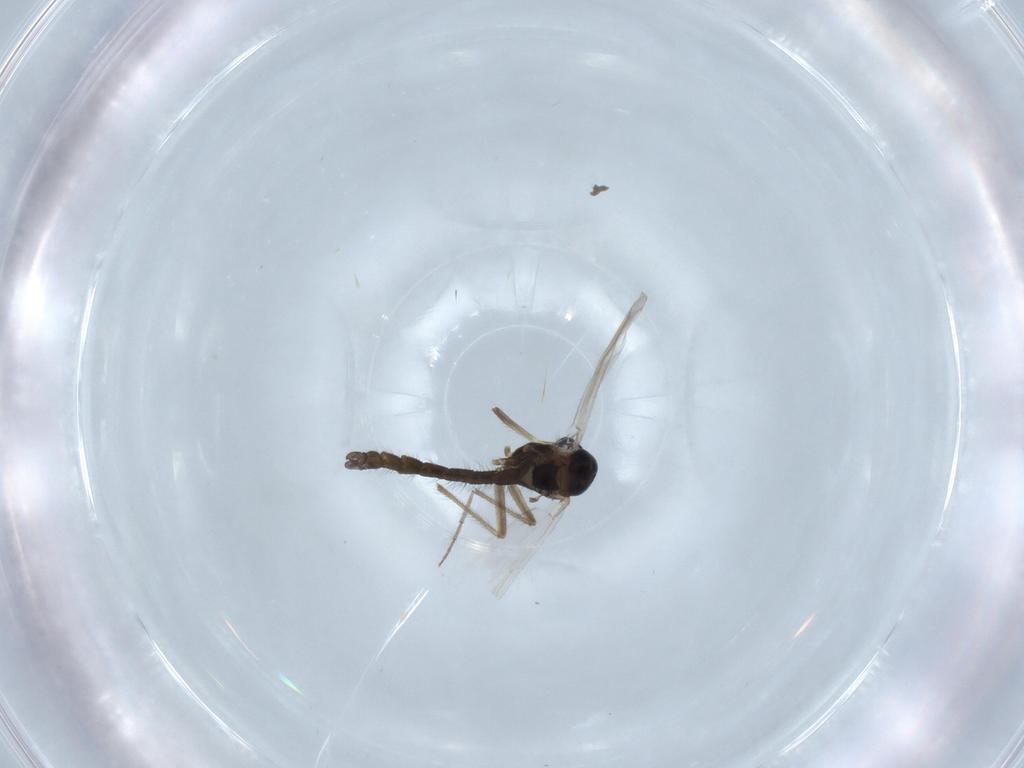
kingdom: Animalia
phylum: Arthropoda
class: Insecta
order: Diptera
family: Chironomidae
